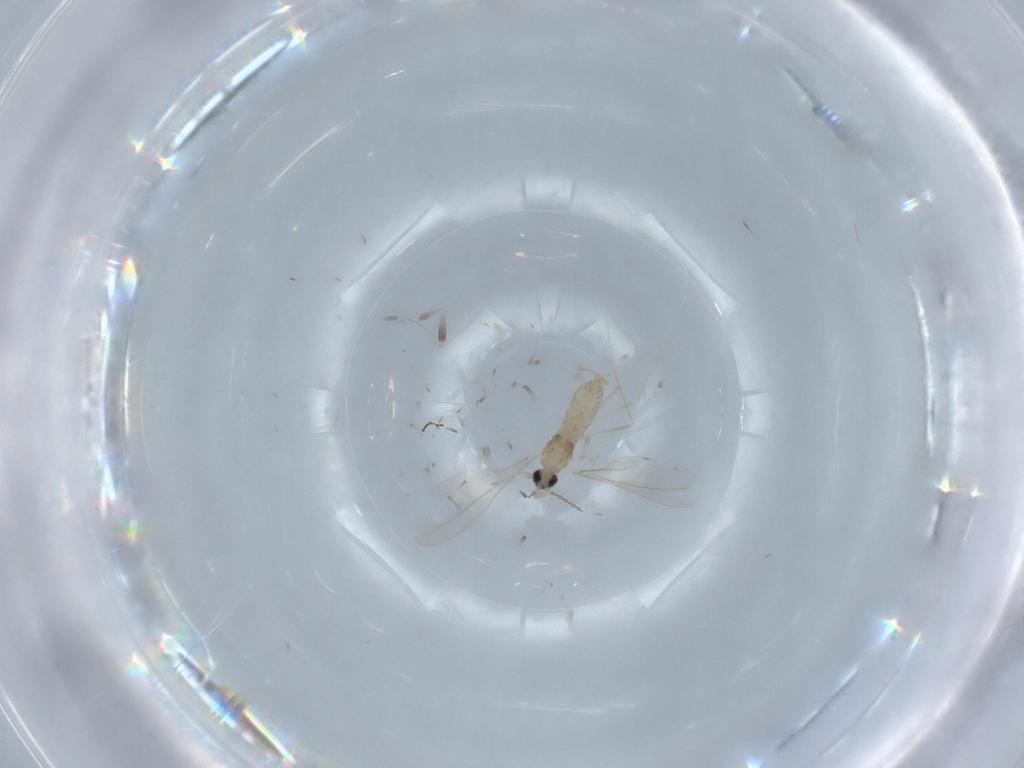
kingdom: Animalia
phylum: Arthropoda
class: Insecta
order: Diptera
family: Cecidomyiidae
